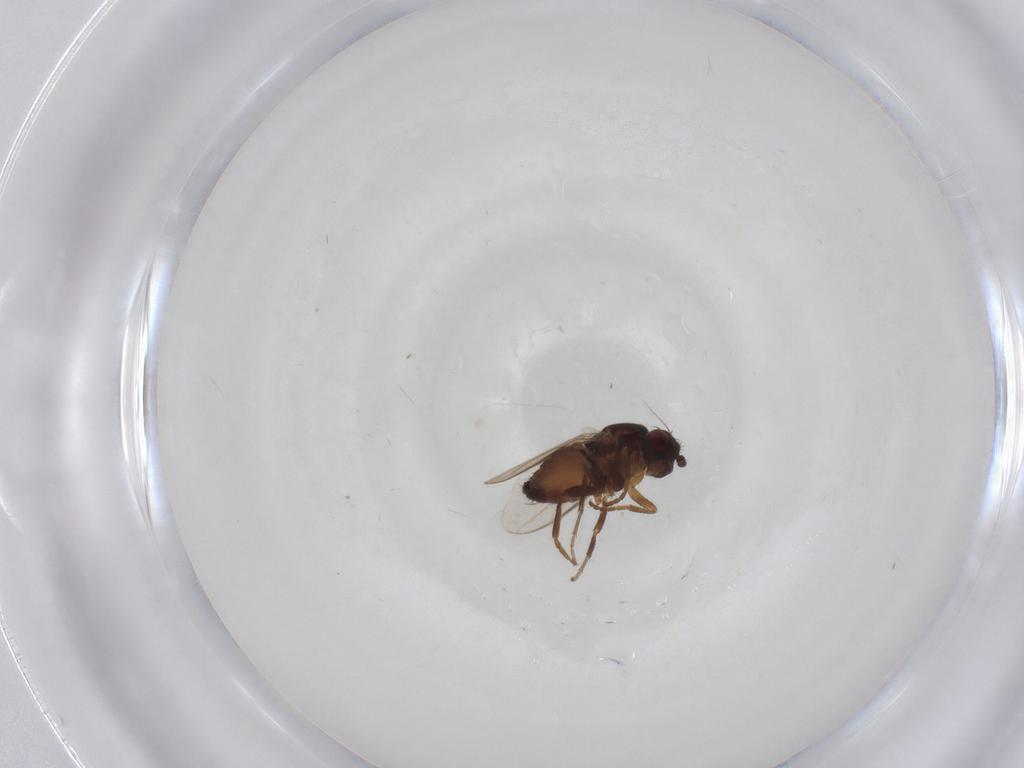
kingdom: Animalia
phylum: Arthropoda
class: Insecta
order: Diptera
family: Sphaeroceridae
